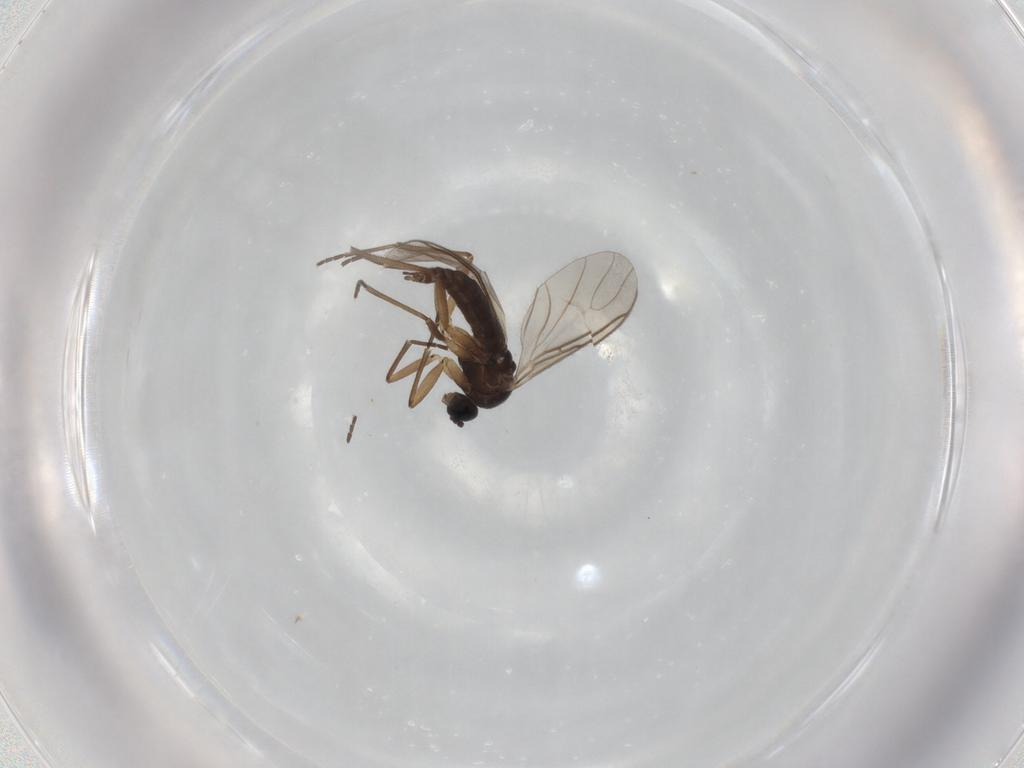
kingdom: Animalia
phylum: Arthropoda
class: Insecta
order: Diptera
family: Sciaridae
